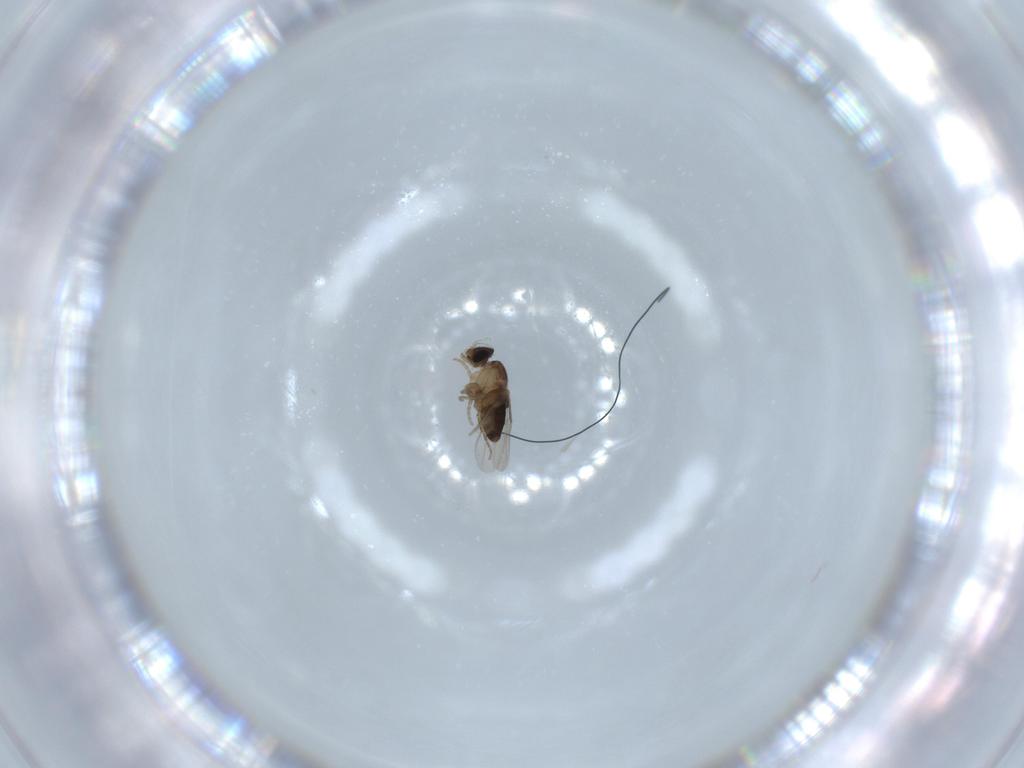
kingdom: Animalia
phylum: Arthropoda
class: Insecta
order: Diptera
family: Phoridae
